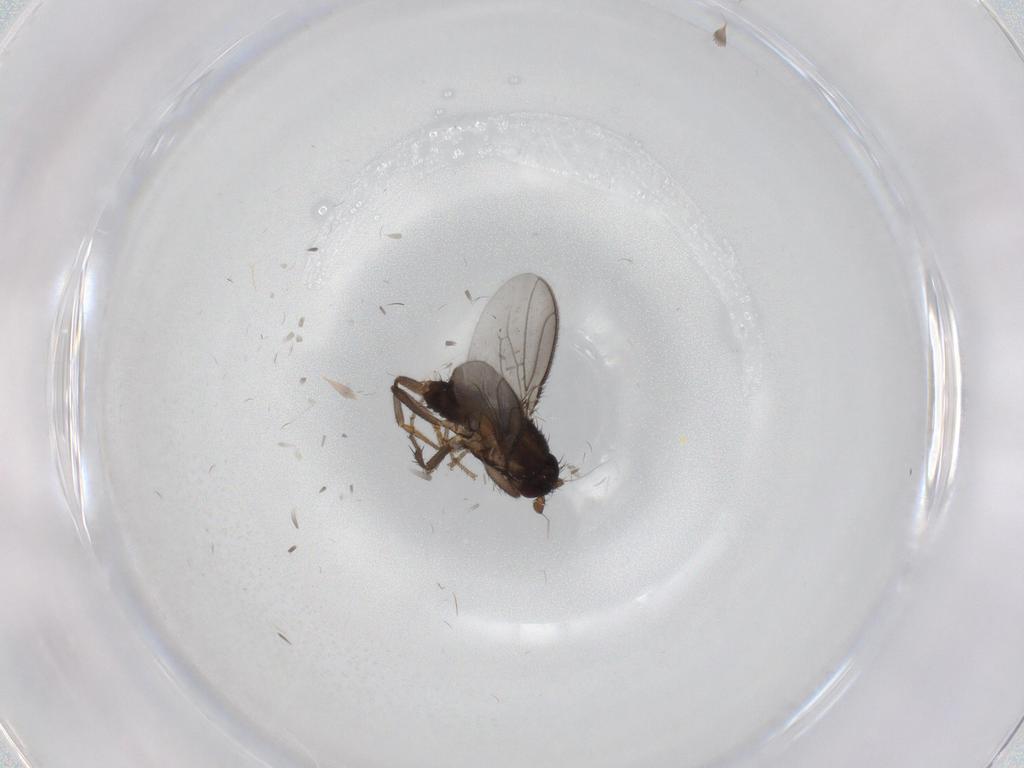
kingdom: Animalia
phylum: Arthropoda
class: Insecta
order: Diptera
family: Sphaeroceridae
